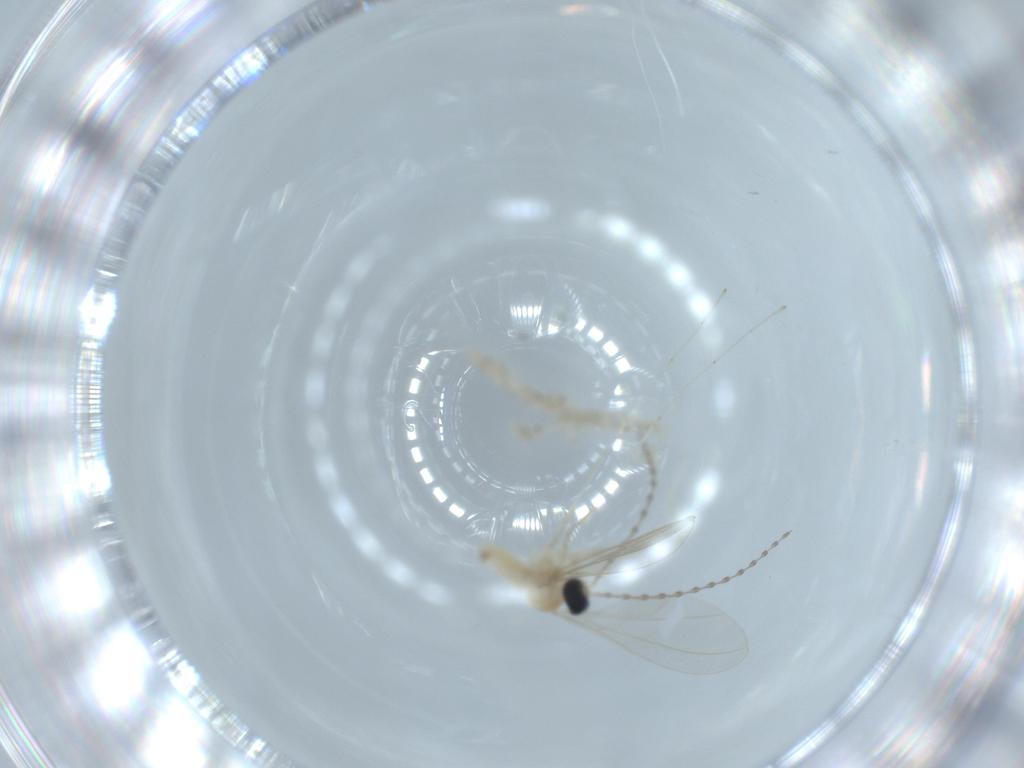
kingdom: Animalia
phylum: Arthropoda
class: Insecta
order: Diptera
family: Cecidomyiidae
